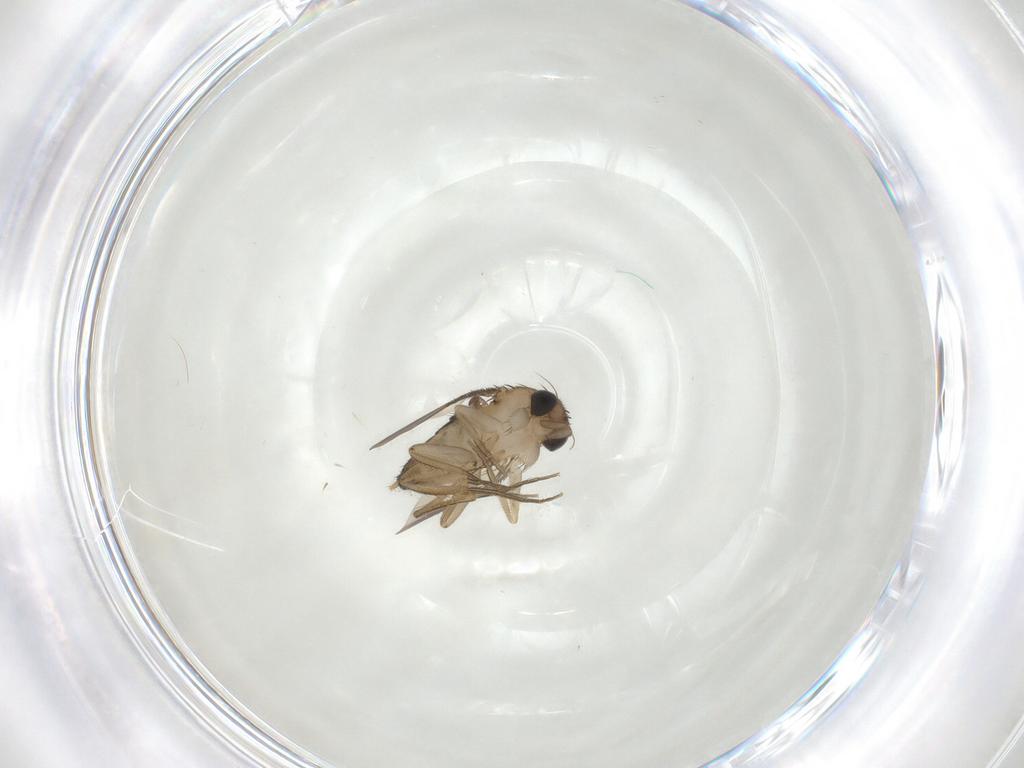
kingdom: Animalia
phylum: Arthropoda
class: Insecta
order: Diptera
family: Phoridae
